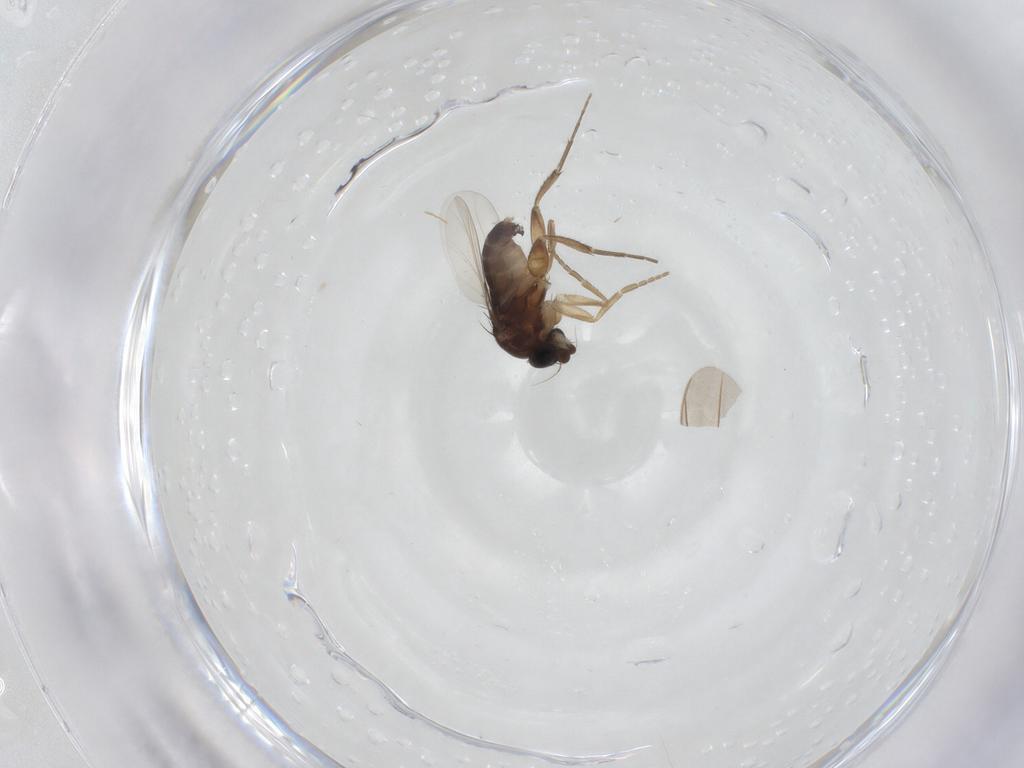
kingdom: Animalia
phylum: Arthropoda
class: Insecta
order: Diptera
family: Phoridae
